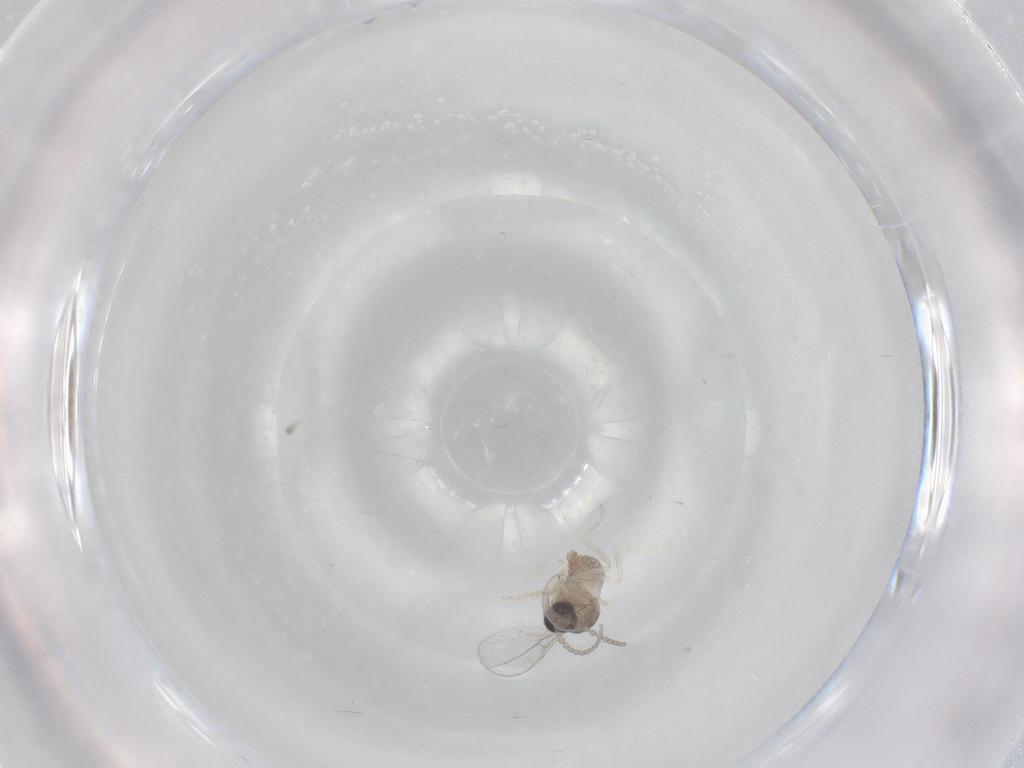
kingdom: Animalia
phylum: Arthropoda
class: Insecta
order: Diptera
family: Cecidomyiidae
